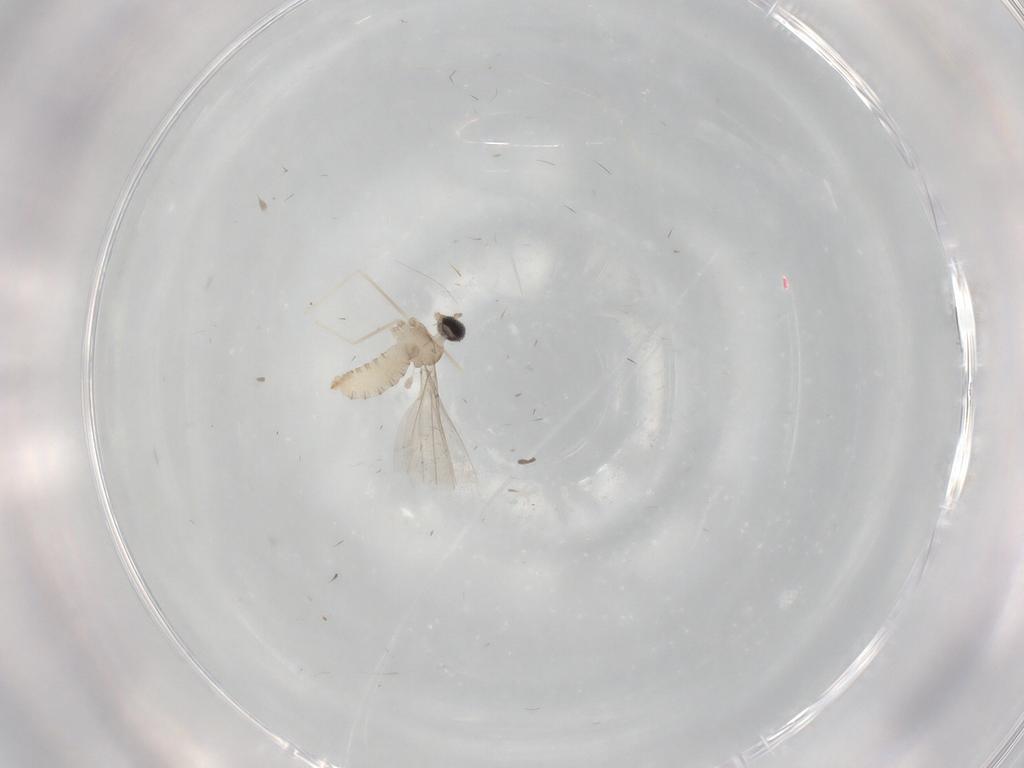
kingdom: Animalia
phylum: Arthropoda
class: Insecta
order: Diptera
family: Cecidomyiidae
